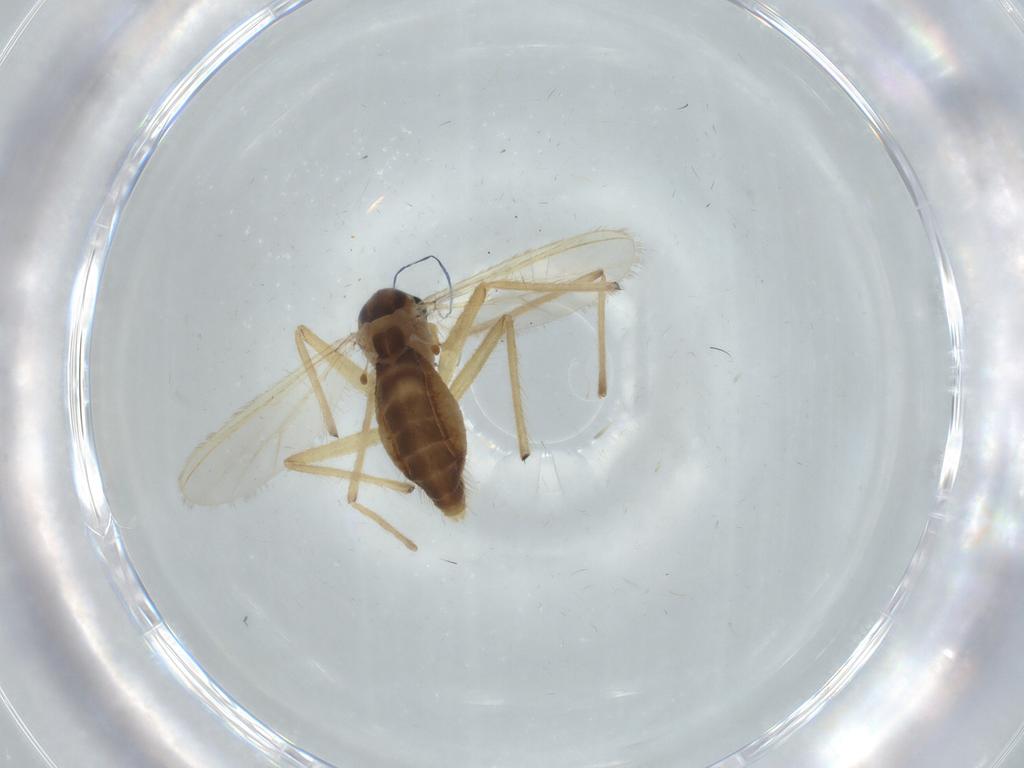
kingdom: Animalia
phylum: Arthropoda
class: Insecta
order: Diptera
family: Chironomidae
